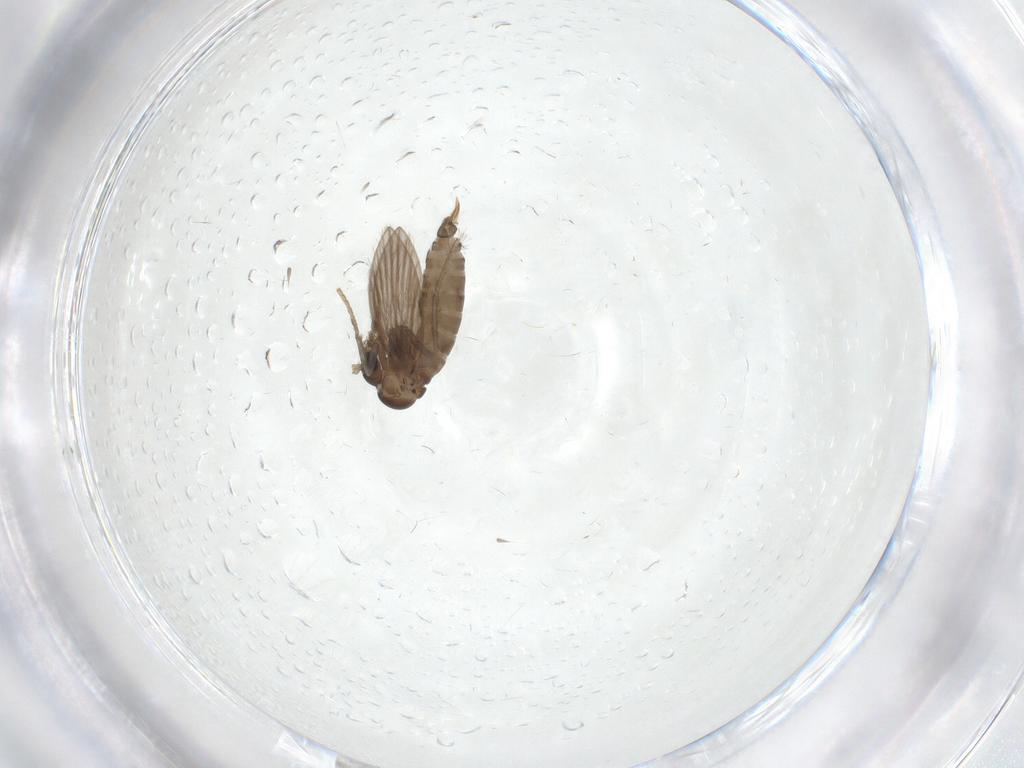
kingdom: Animalia
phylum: Arthropoda
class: Insecta
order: Diptera
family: Psychodidae
